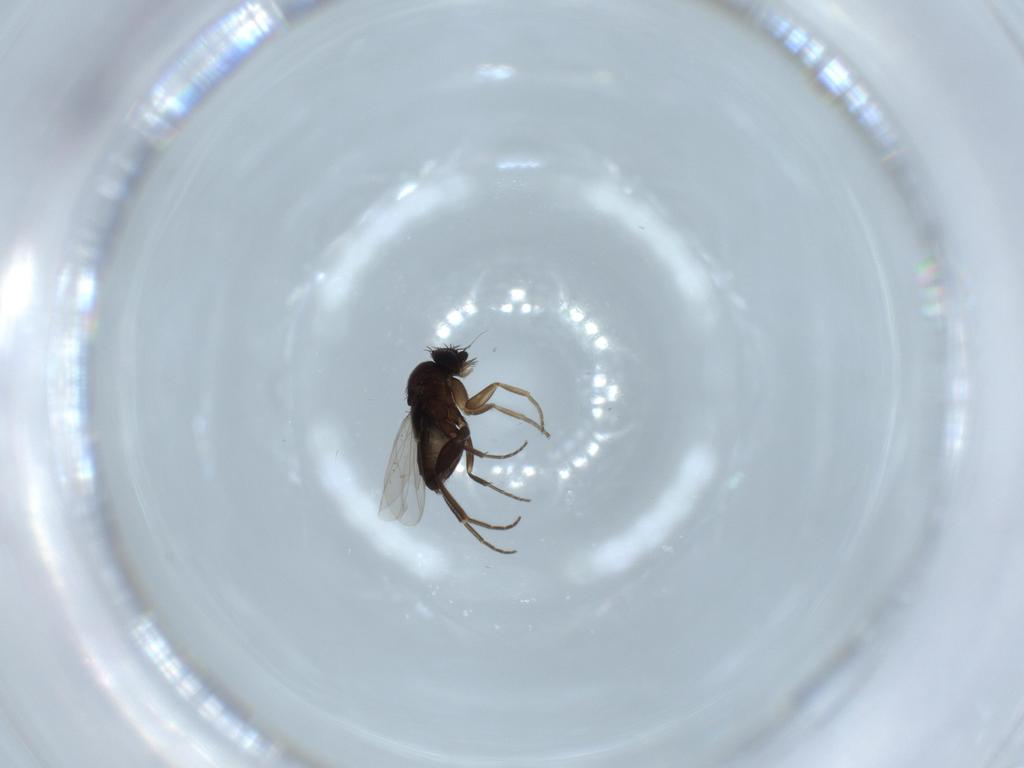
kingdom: Animalia
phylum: Arthropoda
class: Insecta
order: Diptera
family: Phoridae
